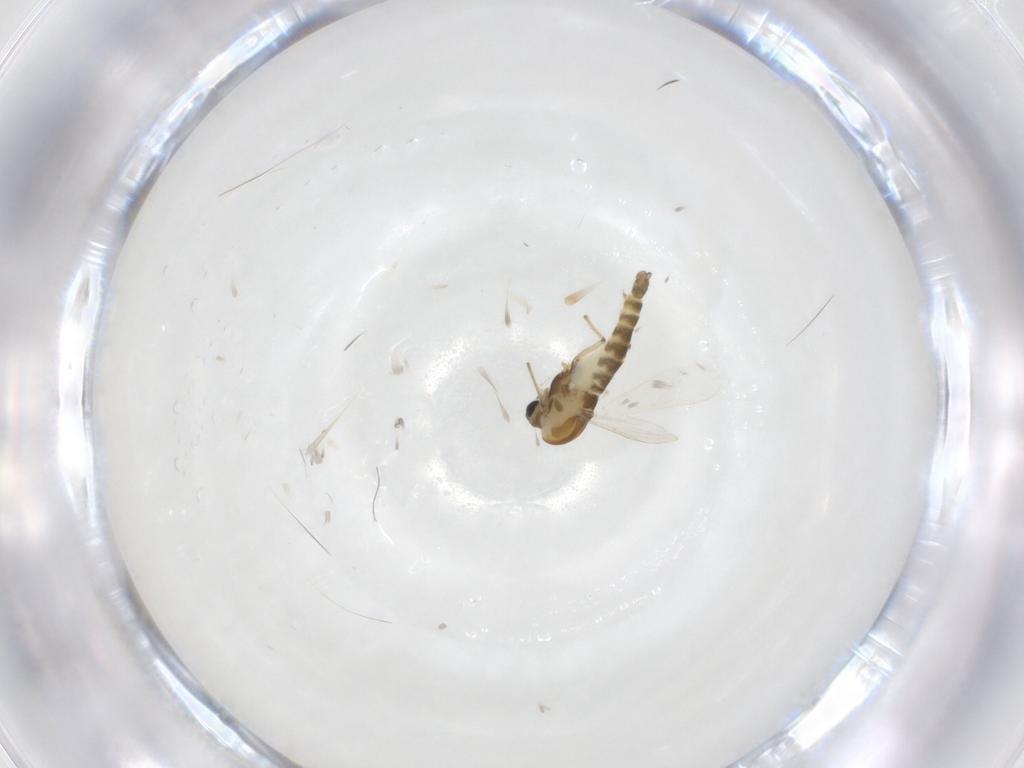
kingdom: Animalia
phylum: Arthropoda
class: Insecta
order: Diptera
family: Chironomidae
